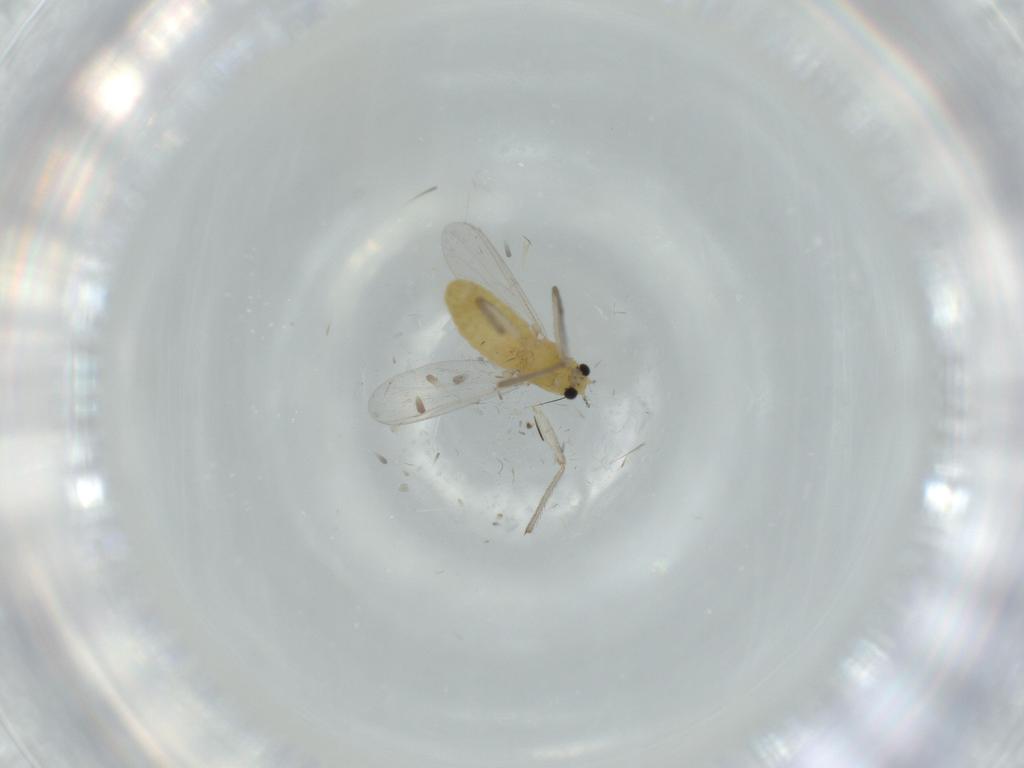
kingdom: Animalia
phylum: Arthropoda
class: Insecta
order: Diptera
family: Chironomidae
